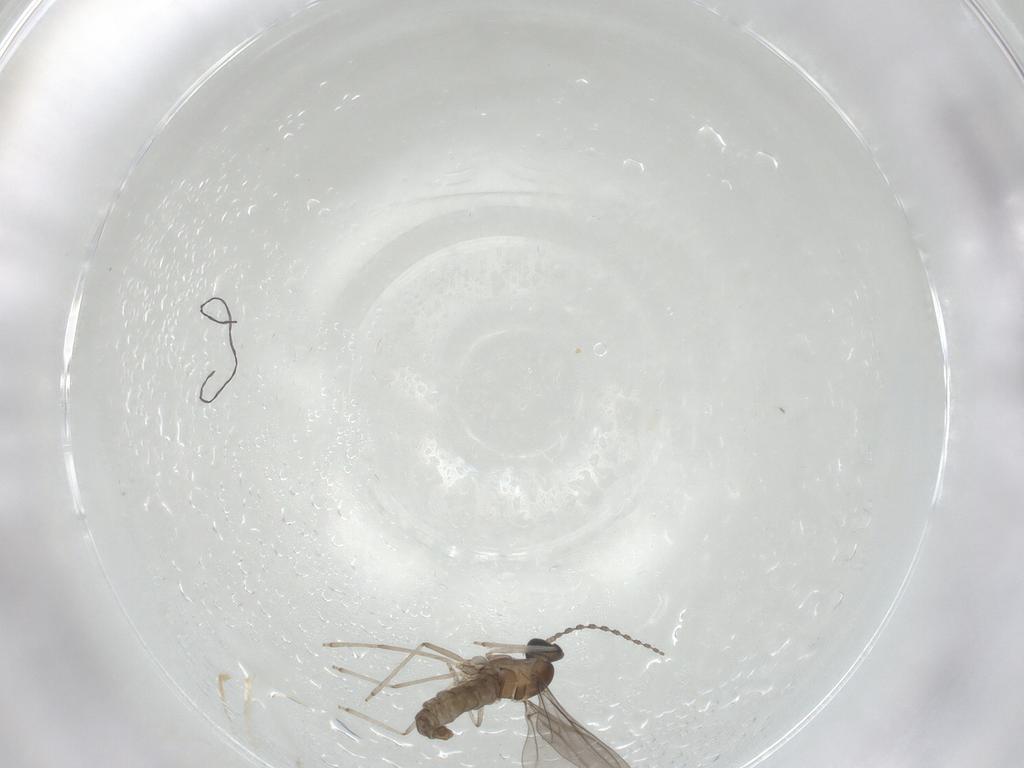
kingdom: Animalia
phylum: Arthropoda
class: Insecta
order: Diptera
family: Cecidomyiidae
